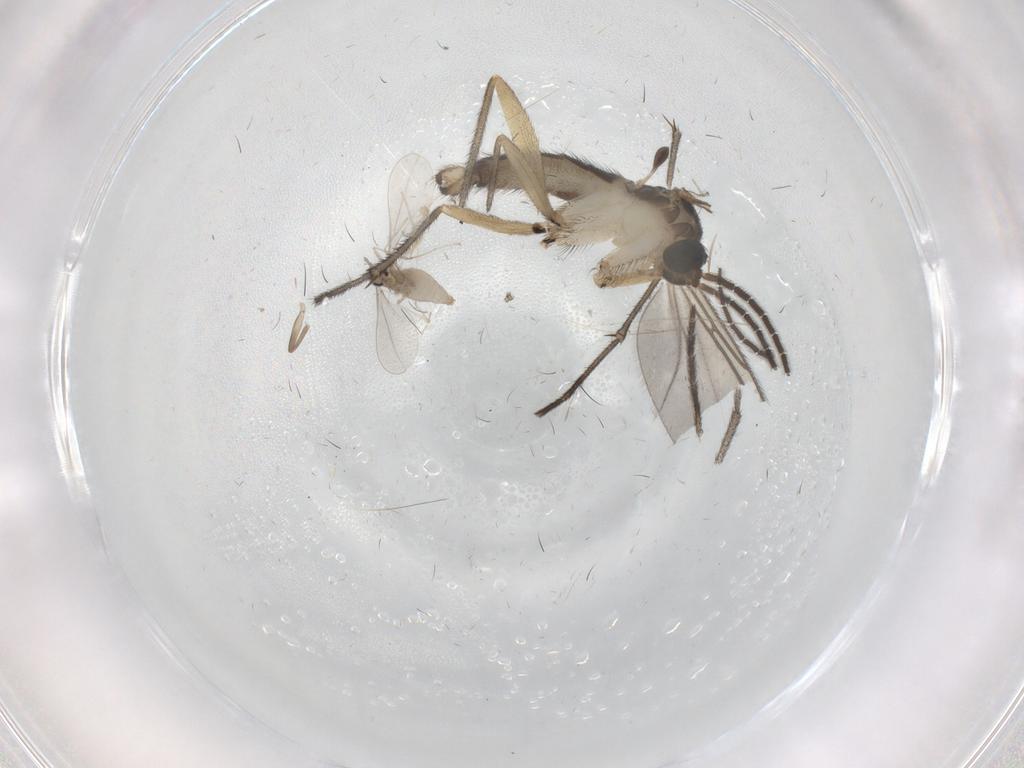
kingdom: Animalia
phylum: Arthropoda
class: Insecta
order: Diptera
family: Sciaridae
